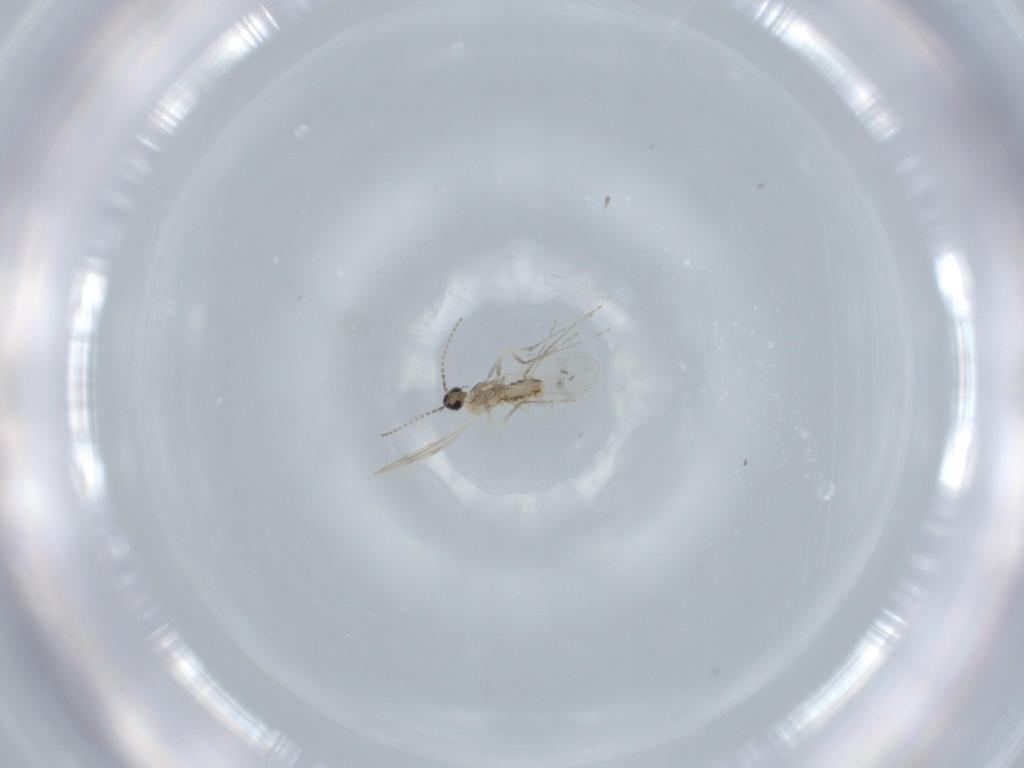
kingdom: Animalia
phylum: Arthropoda
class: Insecta
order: Diptera
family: Cecidomyiidae
